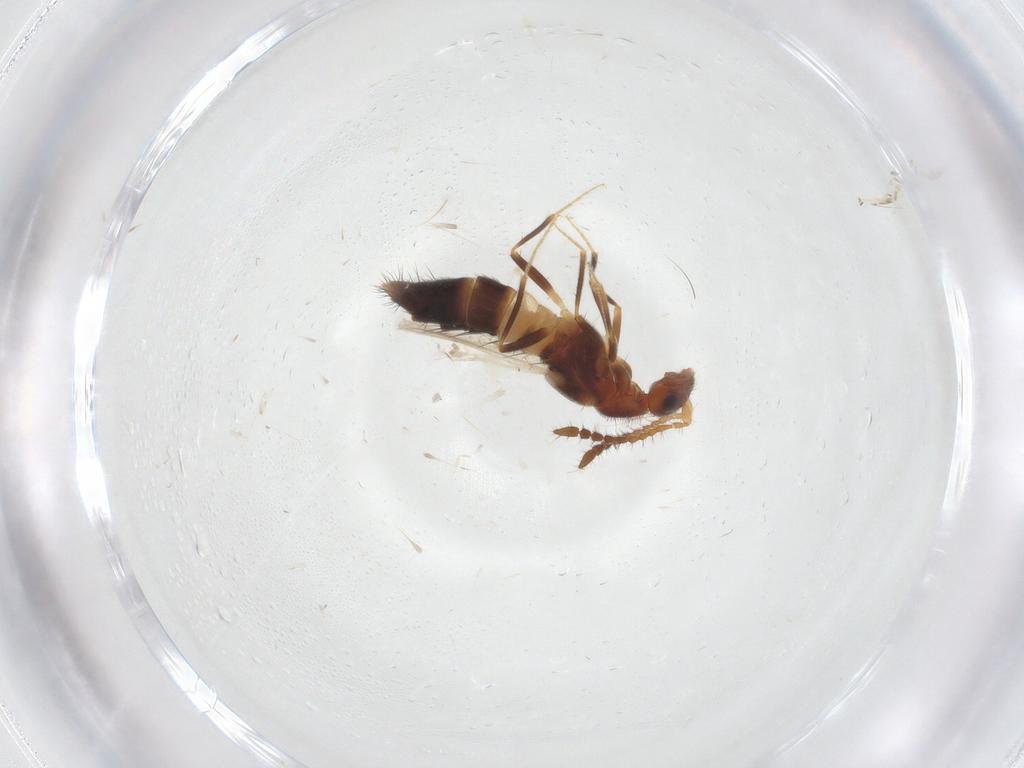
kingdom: Animalia
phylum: Arthropoda
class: Insecta
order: Coleoptera
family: Staphylinidae
